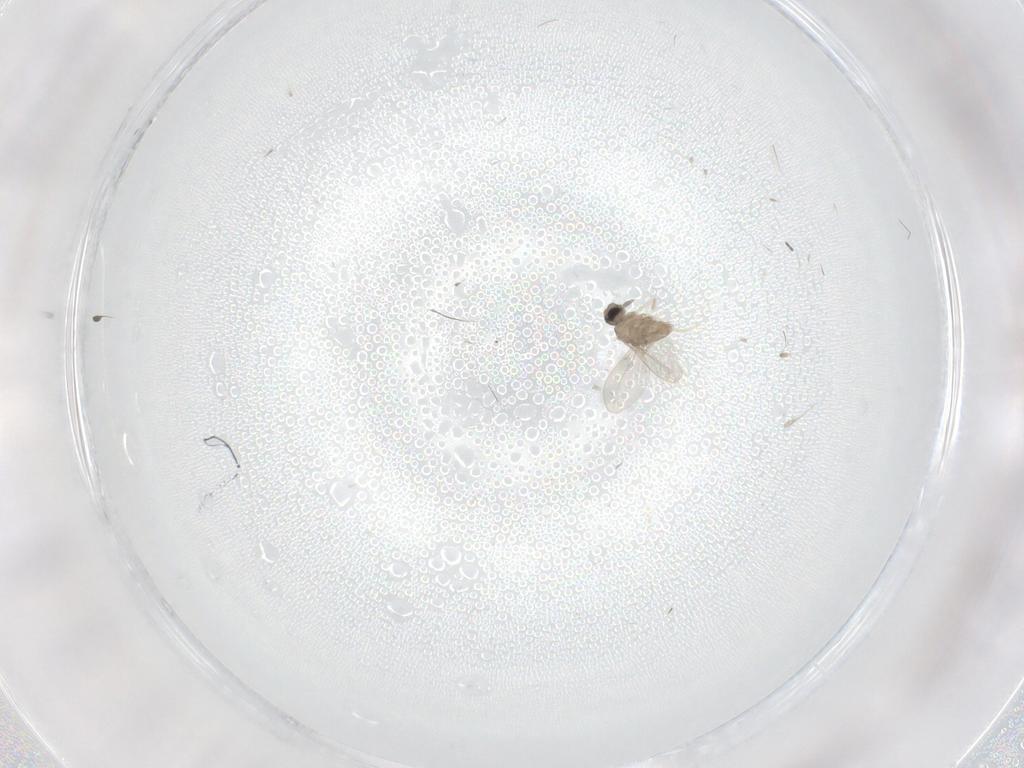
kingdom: Animalia
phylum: Arthropoda
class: Insecta
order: Diptera
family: Cecidomyiidae
